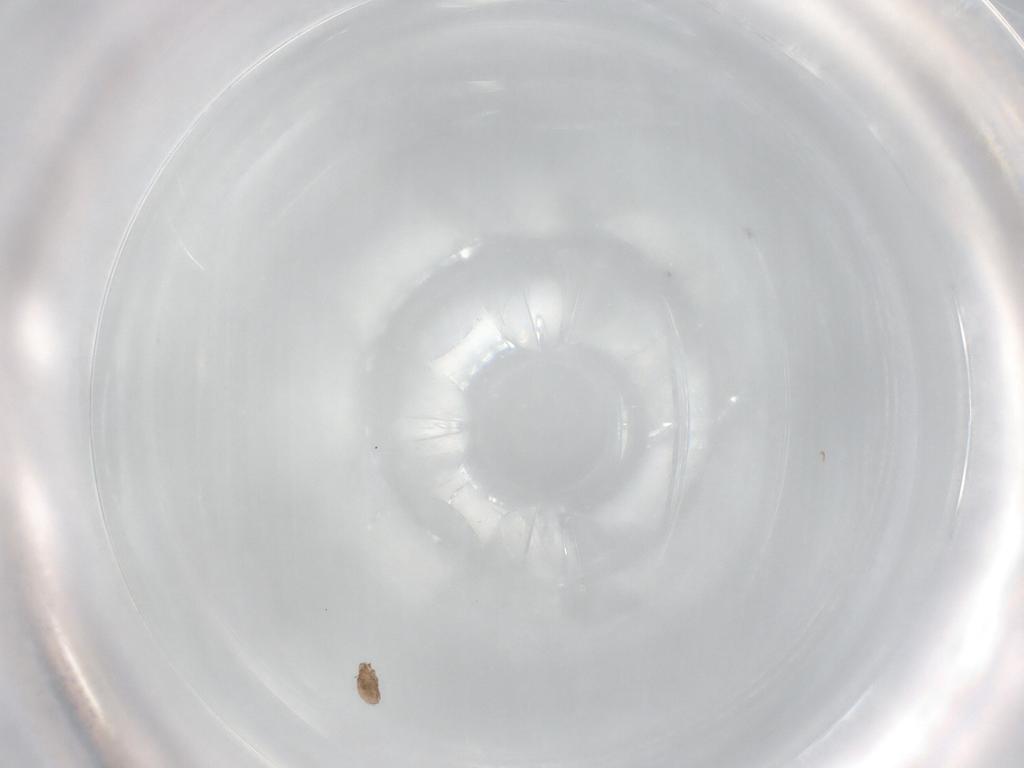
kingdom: Animalia
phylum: Arthropoda
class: Arachnida
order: Sarcoptiformes
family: Phenopelopidae
